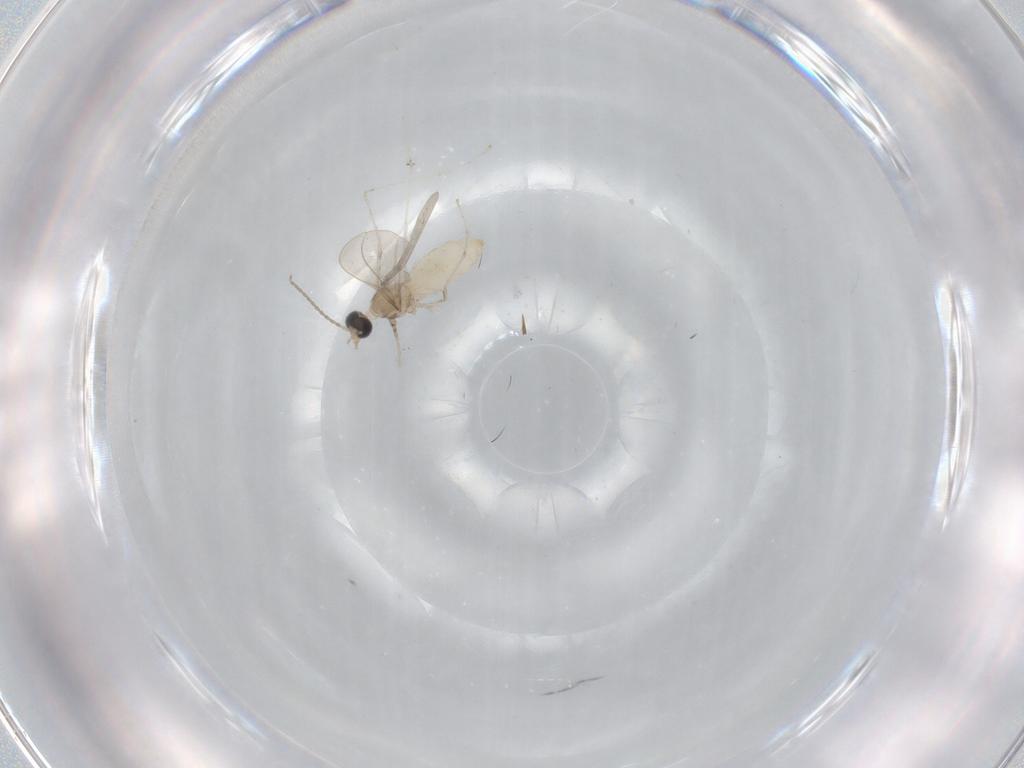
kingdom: Animalia
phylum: Arthropoda
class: Insecta
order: Diptera
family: Cecidomyiidae
